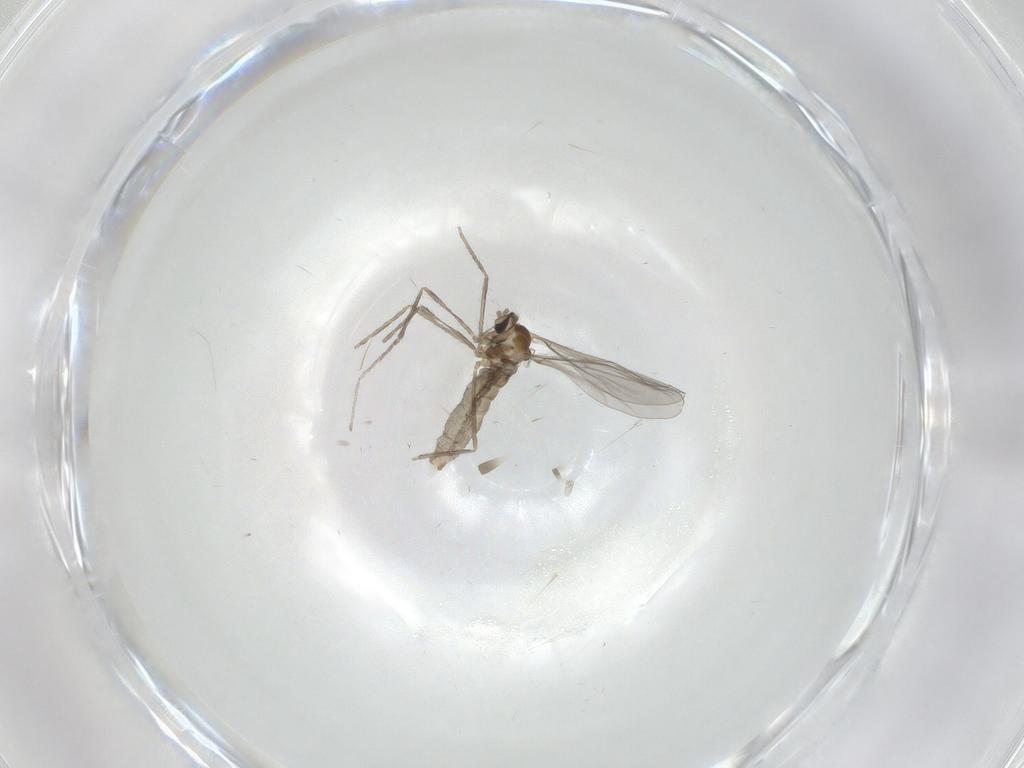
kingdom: Animalia
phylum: Arthropoda
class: Insecta
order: Diptera
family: Cecidomyiidae
